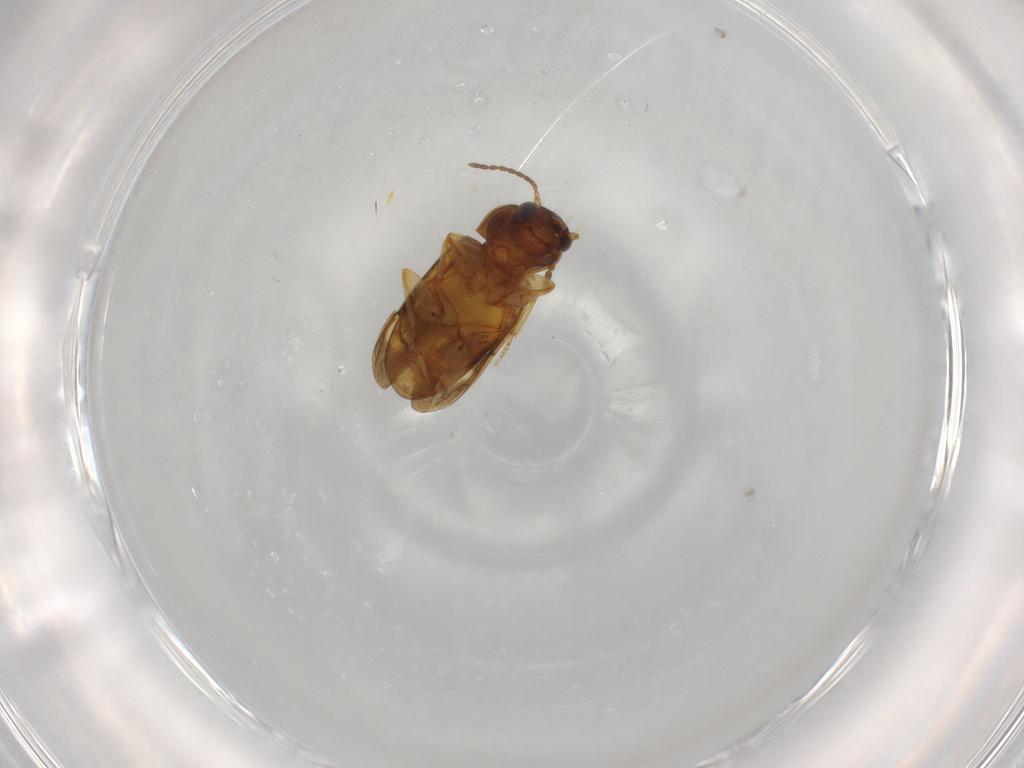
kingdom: Animalia
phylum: Arthropoda
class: Insecta
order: Coleoptera
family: Carabidae
